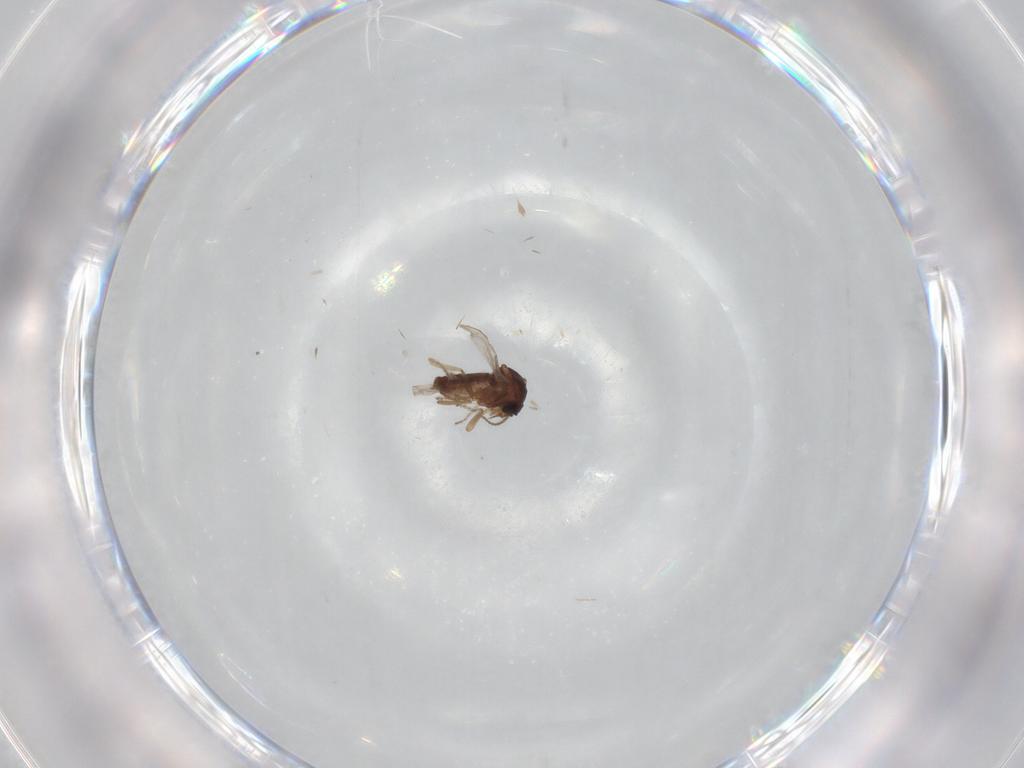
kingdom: Animalia
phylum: Arthropoda
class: Insecta
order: Diptera
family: Ceratopogonidae
